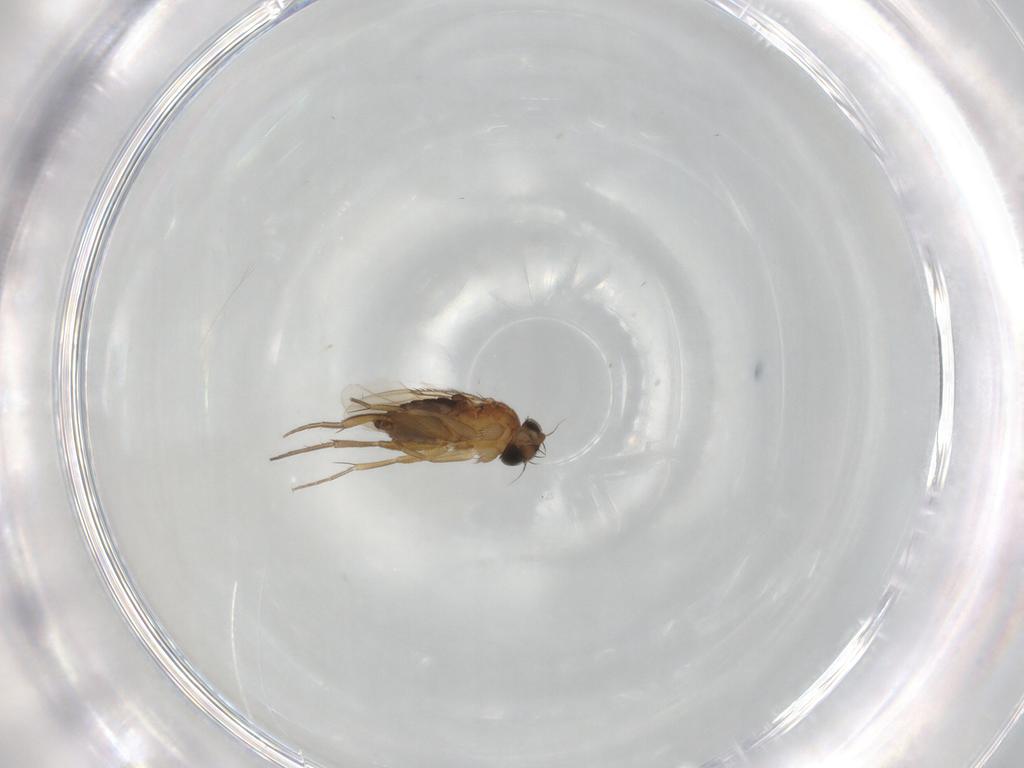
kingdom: Animalia
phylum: Arthropoda
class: Insecta
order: Diptera
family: Phoridae
